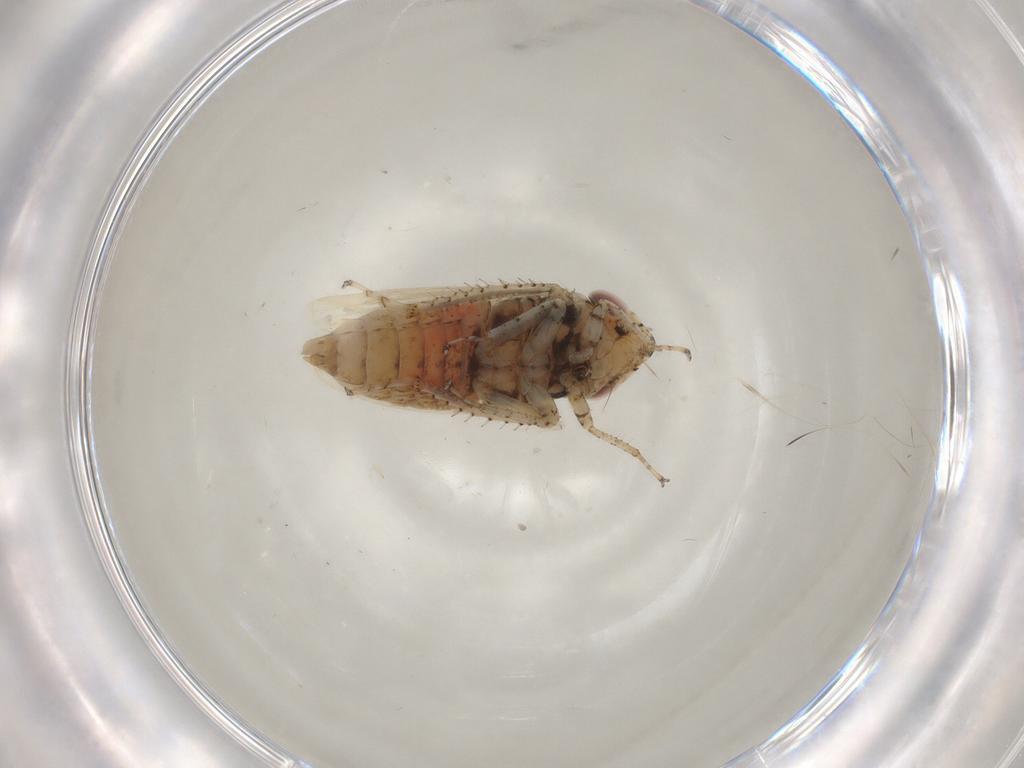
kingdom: Animalia
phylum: Arthropoda
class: Insecta
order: Hemiptera
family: Cicadellidae
